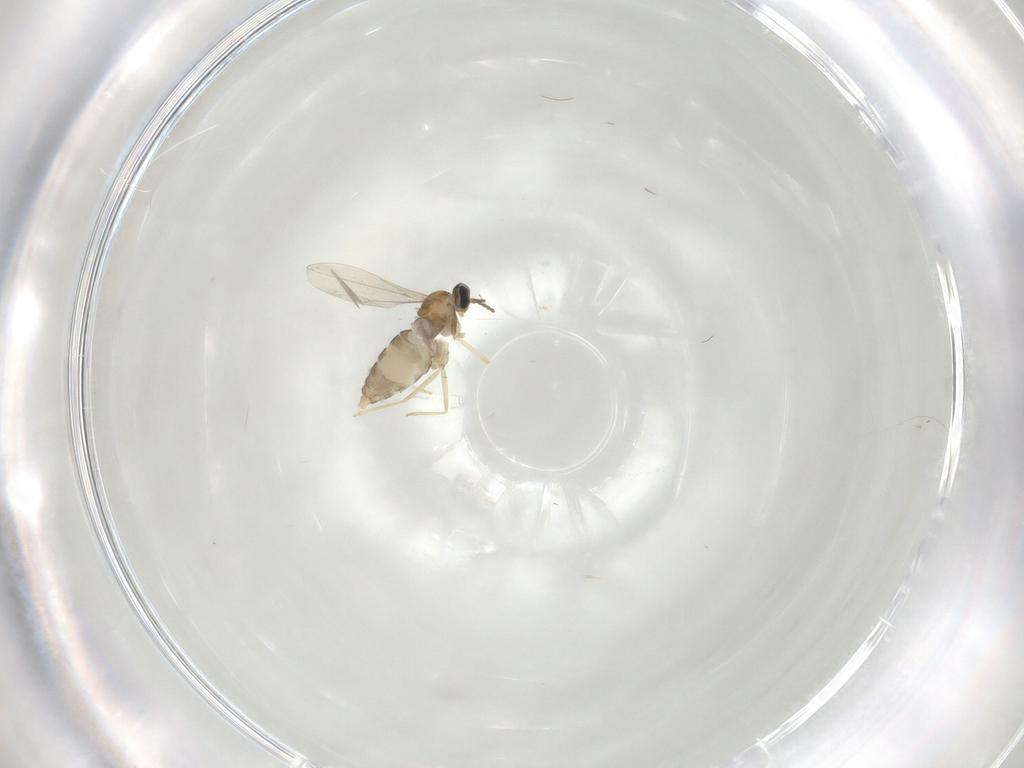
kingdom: Animalia
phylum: Arthropoda
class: Insecta
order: Diptera
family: Cecidomyiidae
